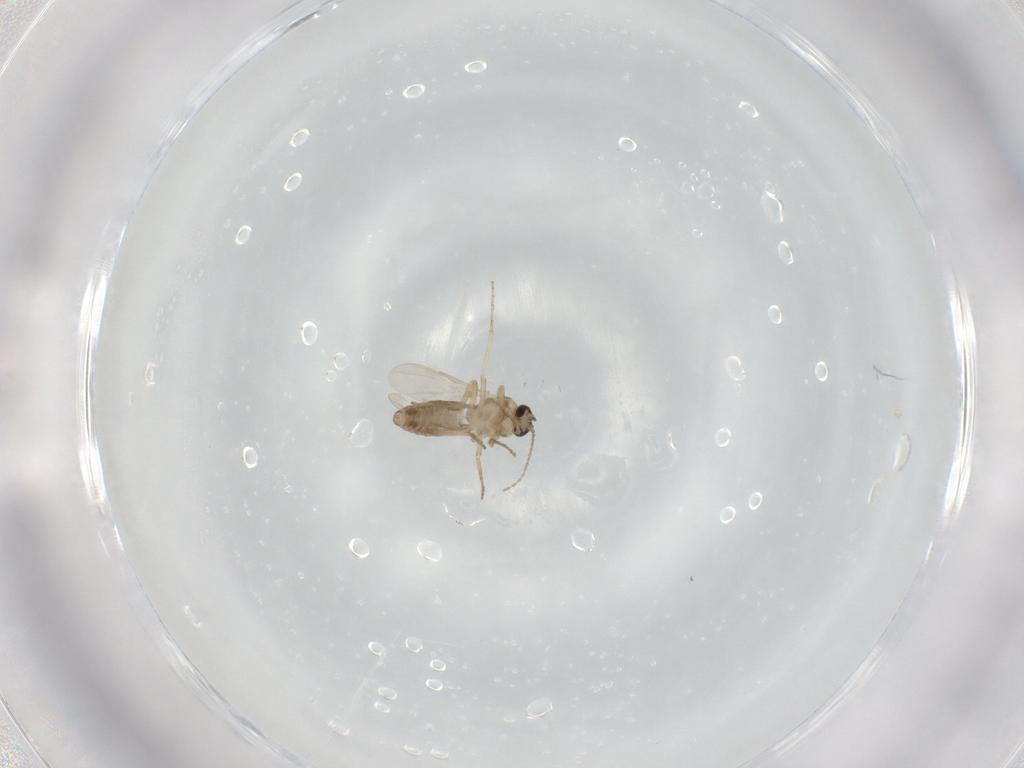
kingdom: Animalia
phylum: Arthropoda
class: Insecta
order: Diptera
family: Ceratopogonidae
